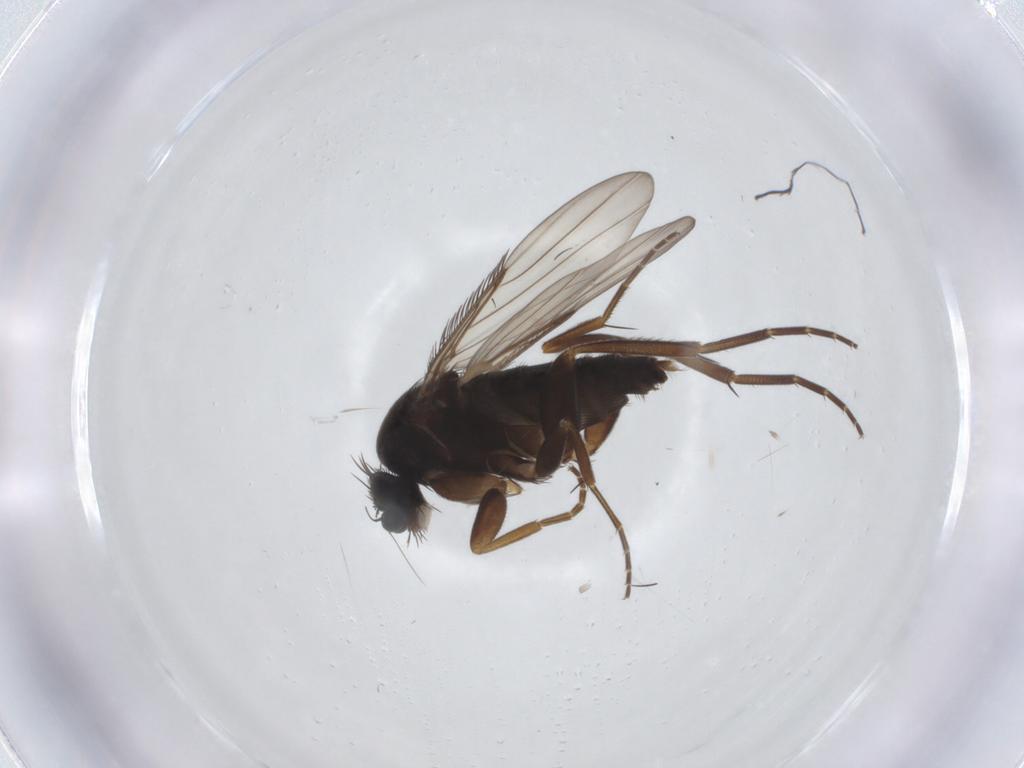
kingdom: Animalia
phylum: Arthropoda
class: Insecta
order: Diptera
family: Phoridae
